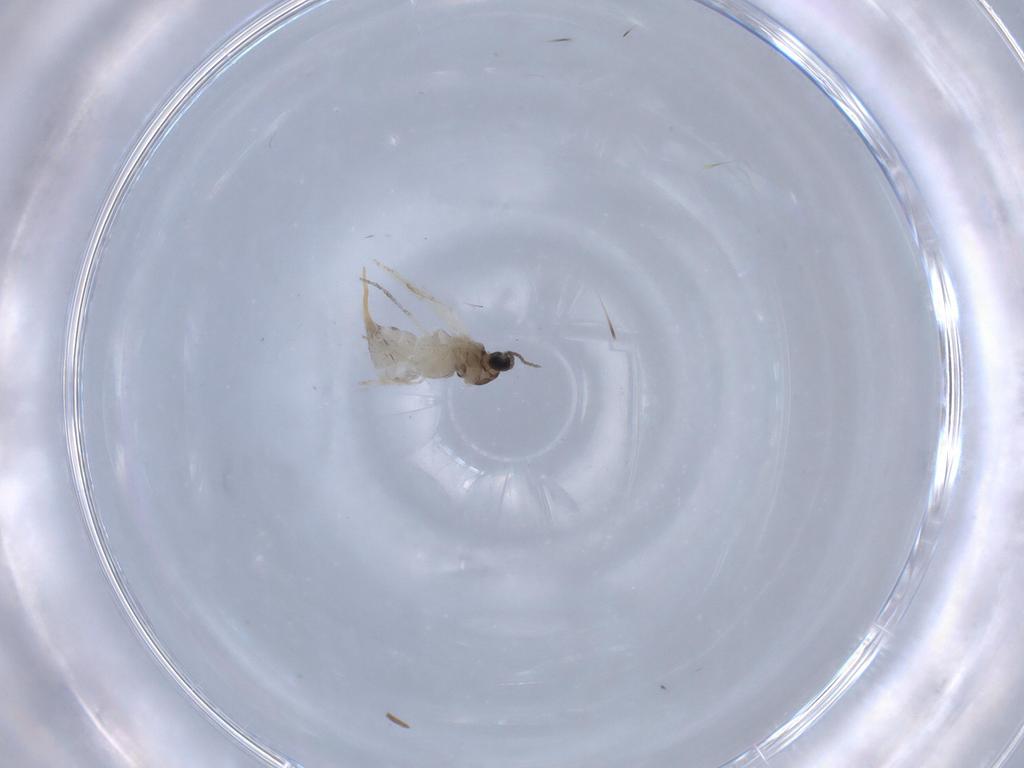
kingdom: Animalia
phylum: Arthropoda
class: Insecta
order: Diptera
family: Cecidomyiidae
